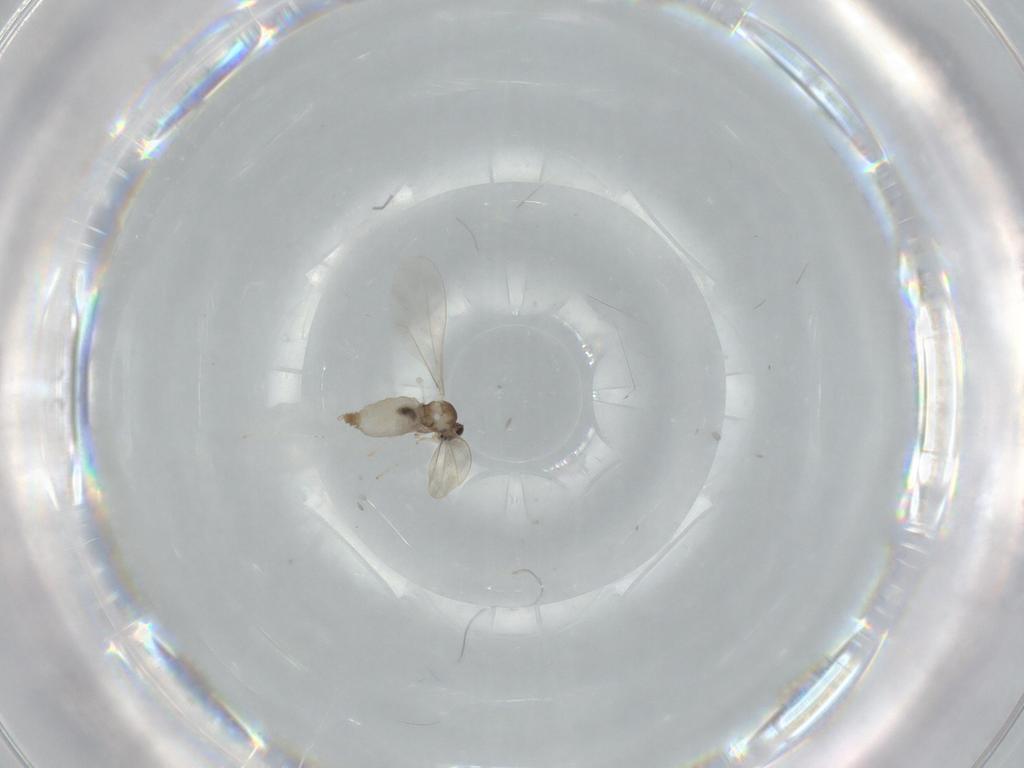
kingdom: Animalia
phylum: Arthropoda
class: Insecta
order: Diptera
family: Cecidomyiidae
